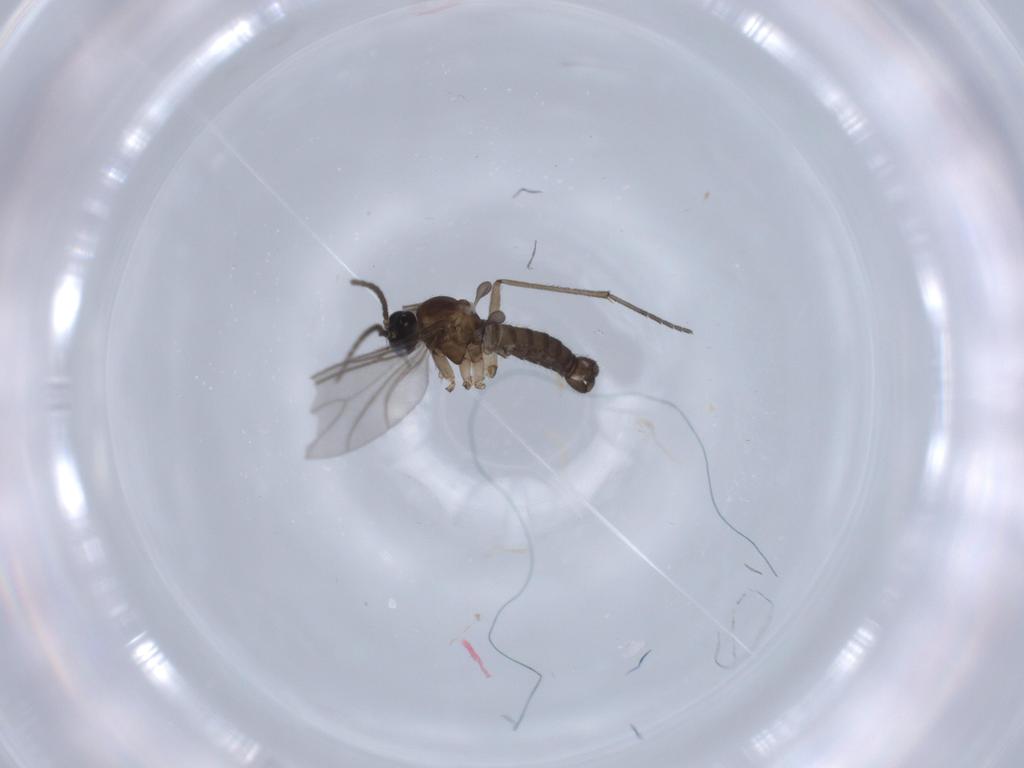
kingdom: Animalia
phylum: Arthropoda
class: Insecta
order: Diptera
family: Sciaridae
